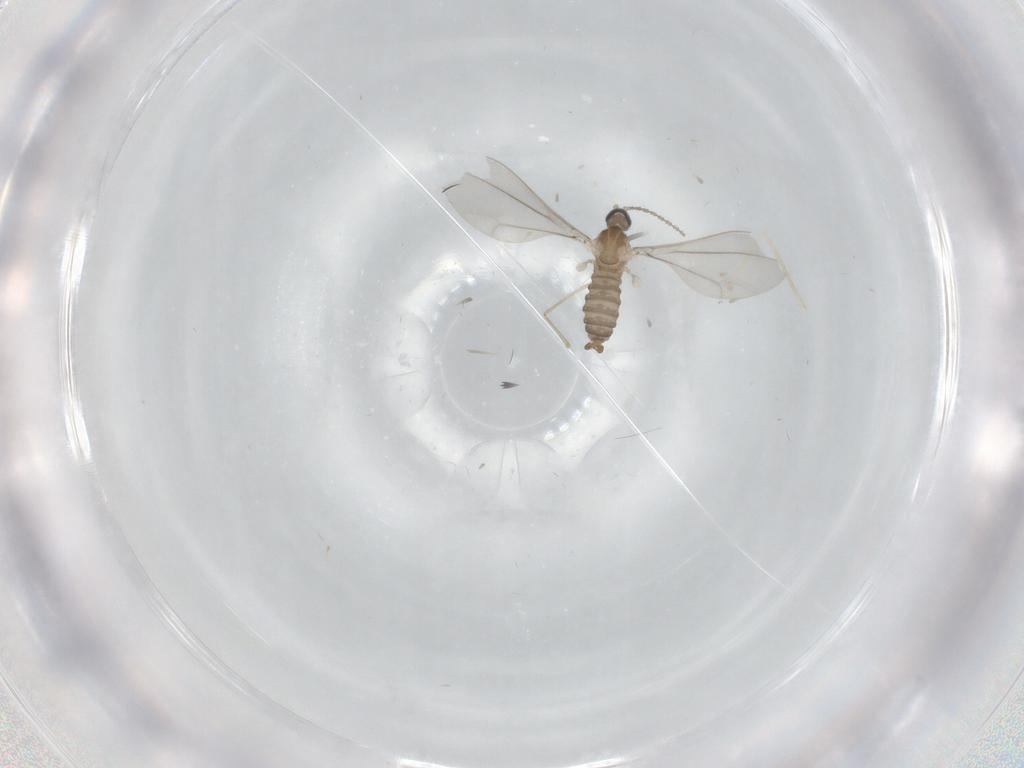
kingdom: Animalia
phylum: Arthropoda
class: Insecta
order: Diptera
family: Cecidomyiidae
